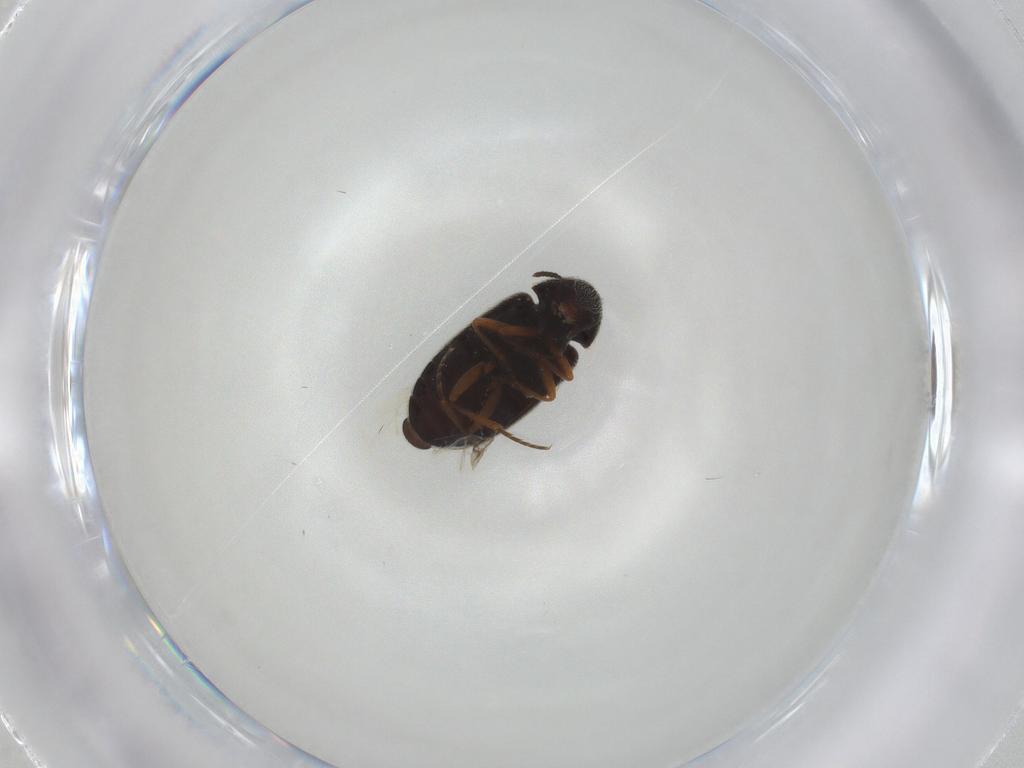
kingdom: Animalia
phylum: Arthropoda
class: Insecta
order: Coleoptera
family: Rhadalidae
